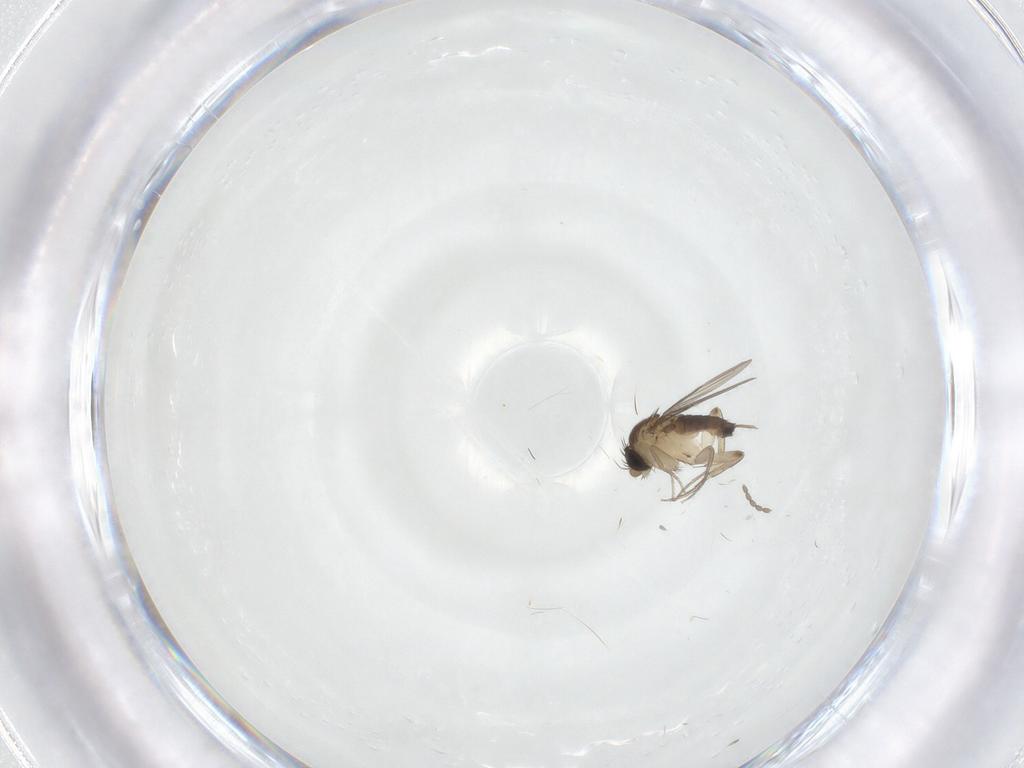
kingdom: Animalia
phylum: Arthropoda
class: Insecta
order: Diptera
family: Phoridae
